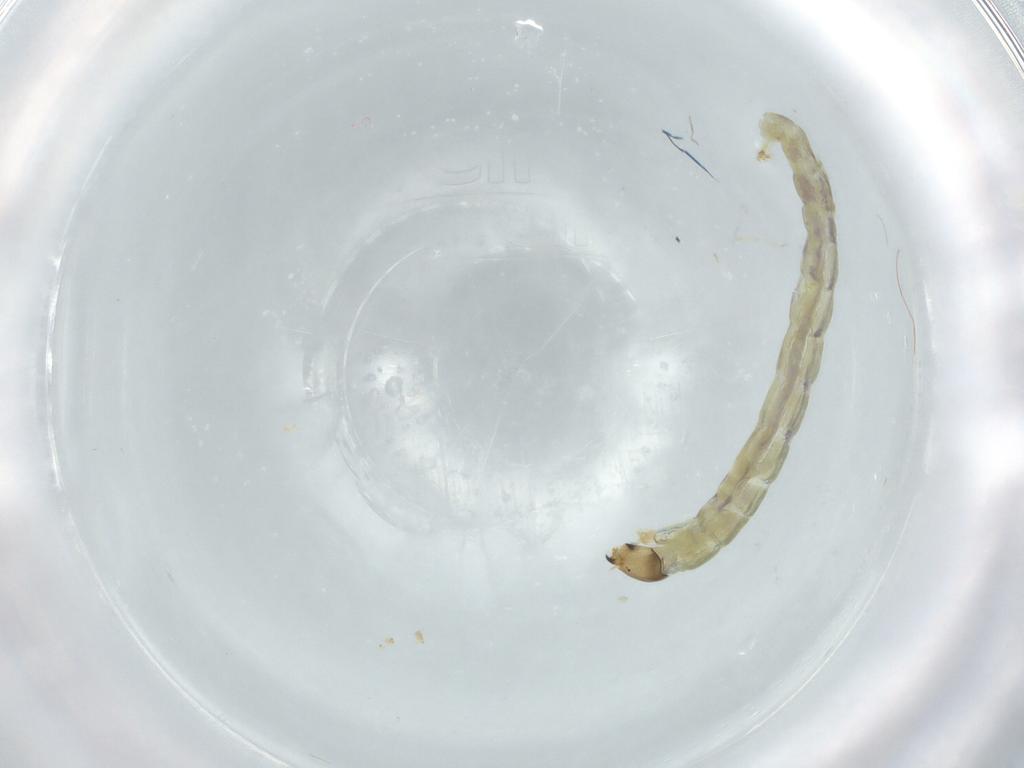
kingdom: Animalia
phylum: Arthropoda
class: Insecta
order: Diptera
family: Chironomidae
